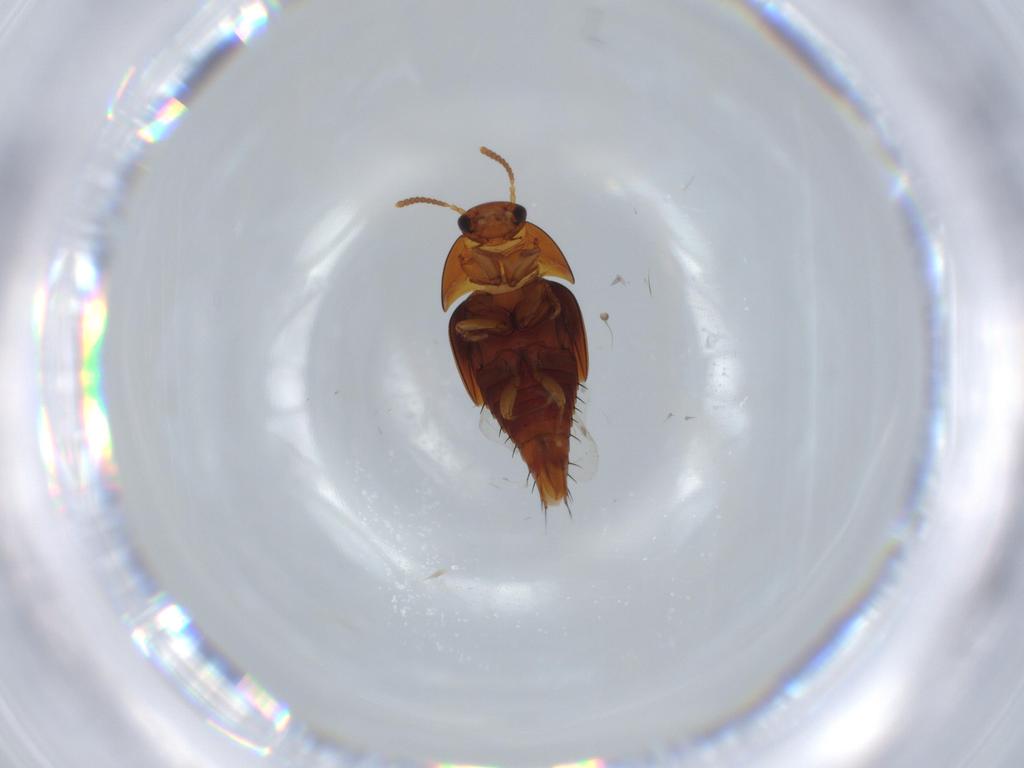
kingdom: Animalia
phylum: Arthropoda
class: Insecta
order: Coleoptera
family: Staphylinidae
